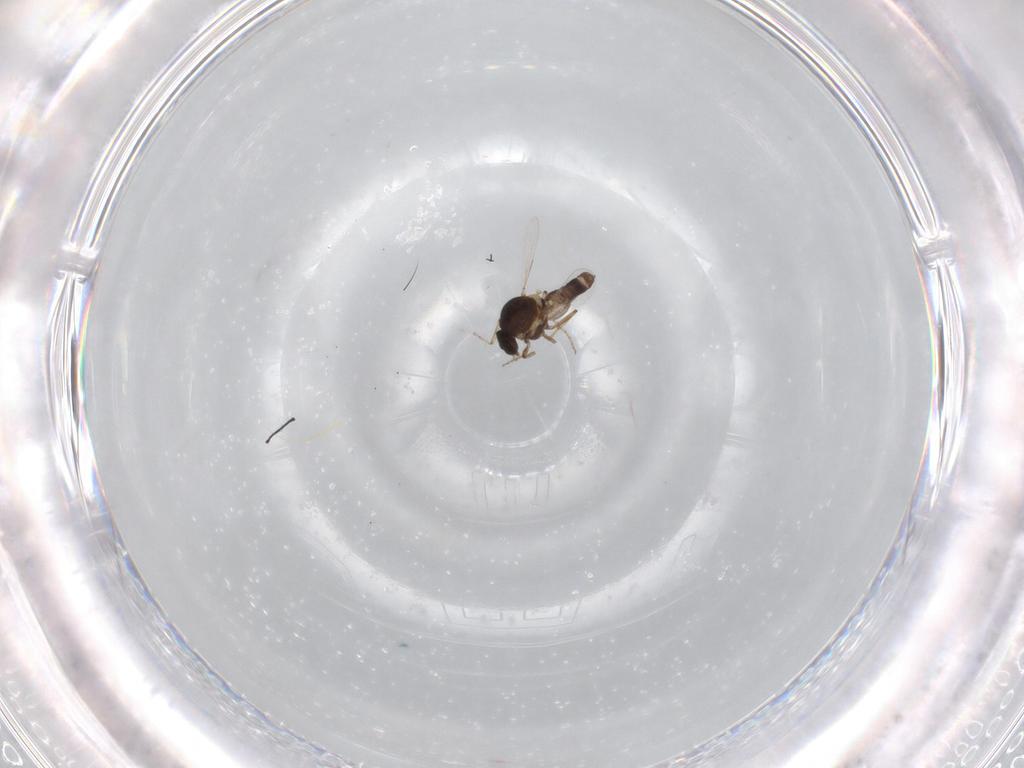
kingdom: Animalia
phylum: Arthropoda
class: Insecta
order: Diptera
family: Ceratopogonidae
